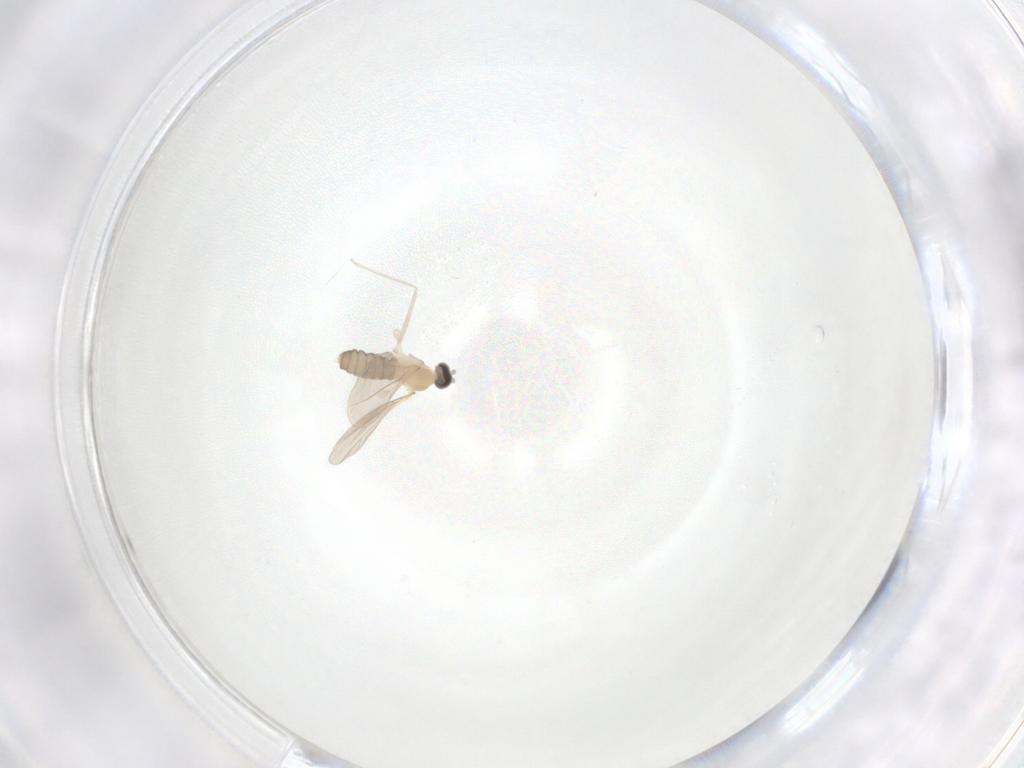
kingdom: Animalia
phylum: Arthropoda
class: Insecta
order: Diptera
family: Cecidomyiidae
